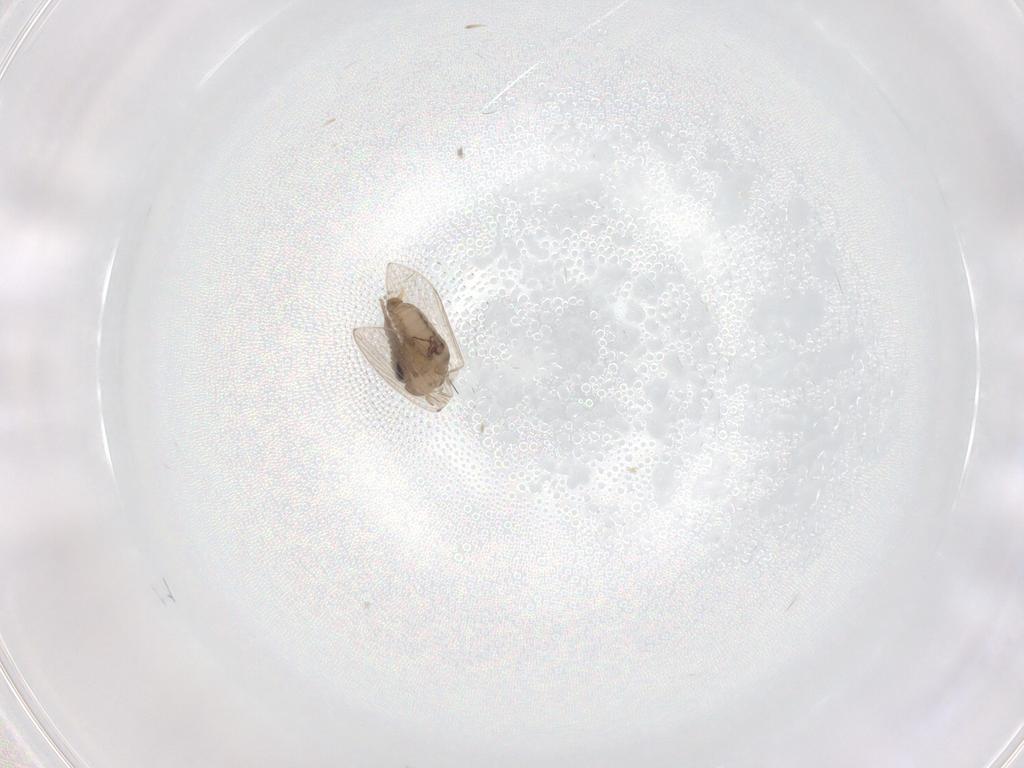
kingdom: Animalia
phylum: Arthropoda
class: Insecta
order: Diptera
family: Psychodidae
